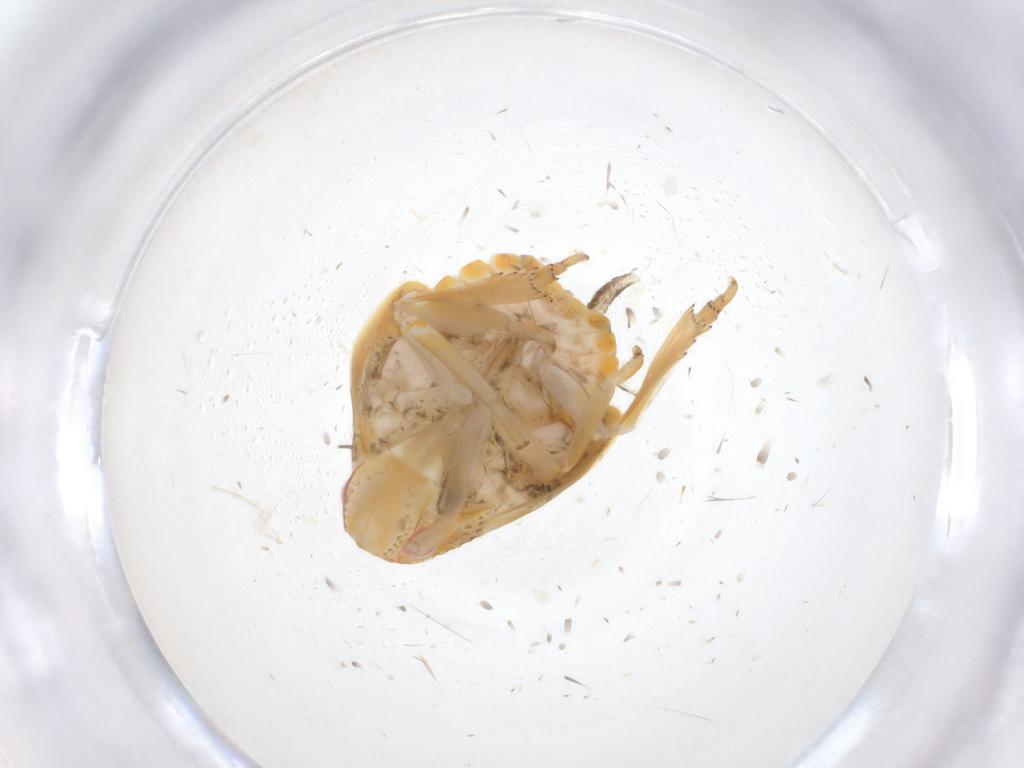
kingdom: Animalia
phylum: Arthropoda
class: Insecta
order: Hemiptera
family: Fulgoroidea_incertae_sedis
